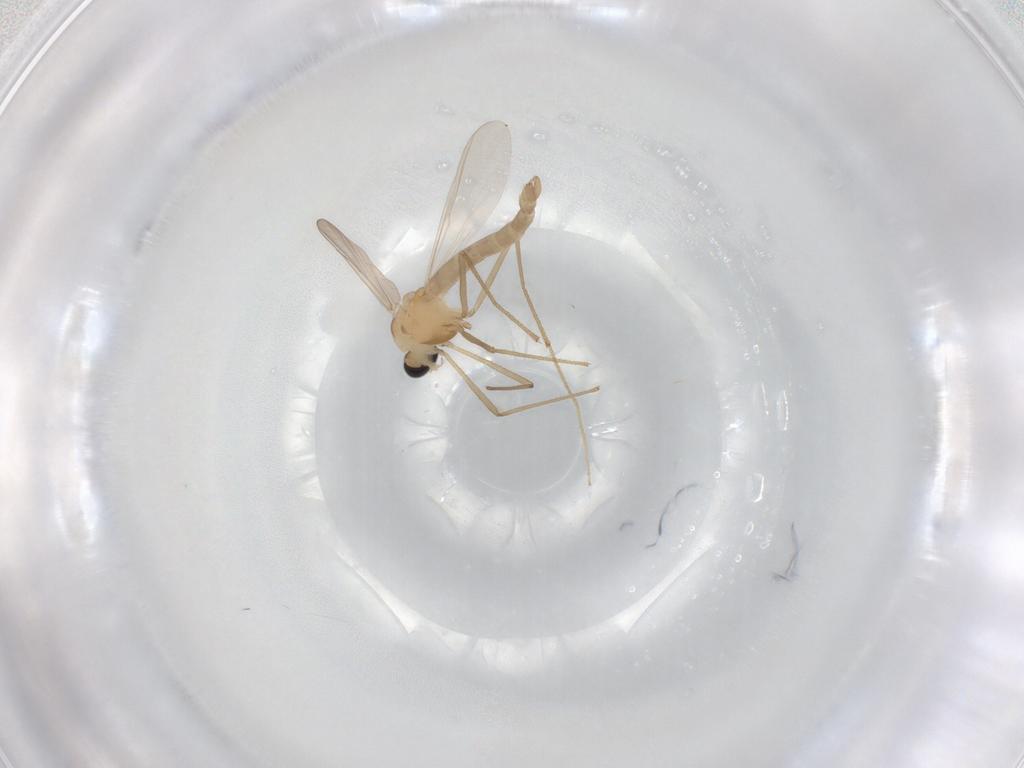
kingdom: Animalia
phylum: Arthropoda
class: Insecta
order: Diptera
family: Chironomidae
